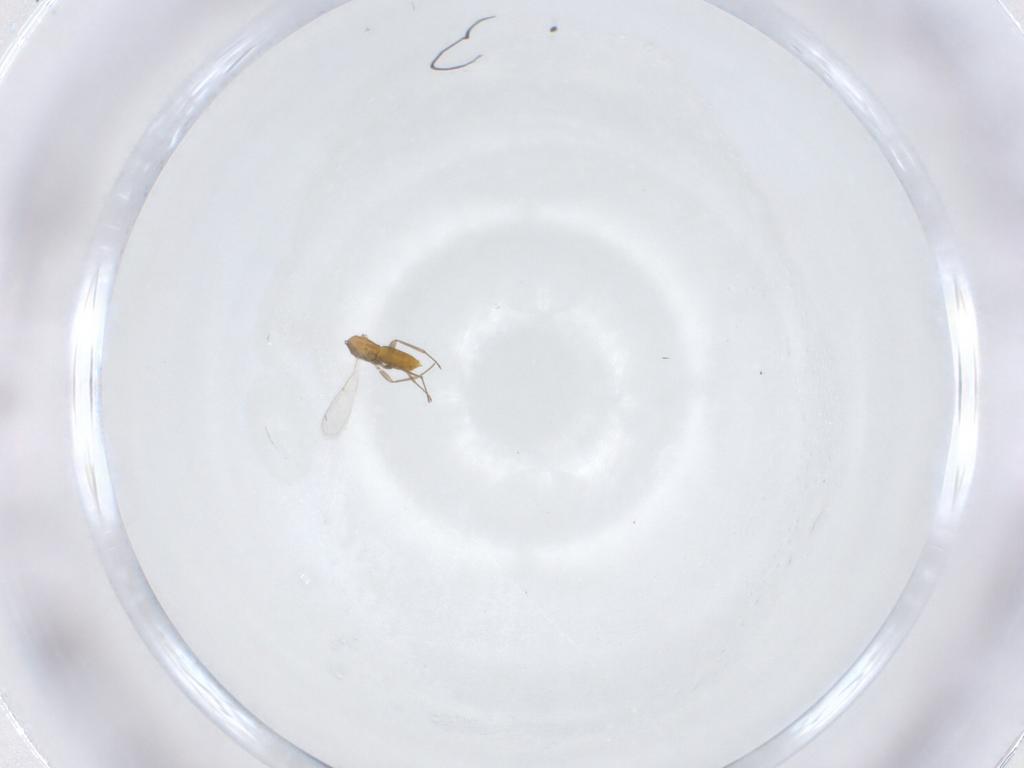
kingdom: Animalia
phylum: Arthropoda
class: Insecta
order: Hymenoptera
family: Aphelinidae
